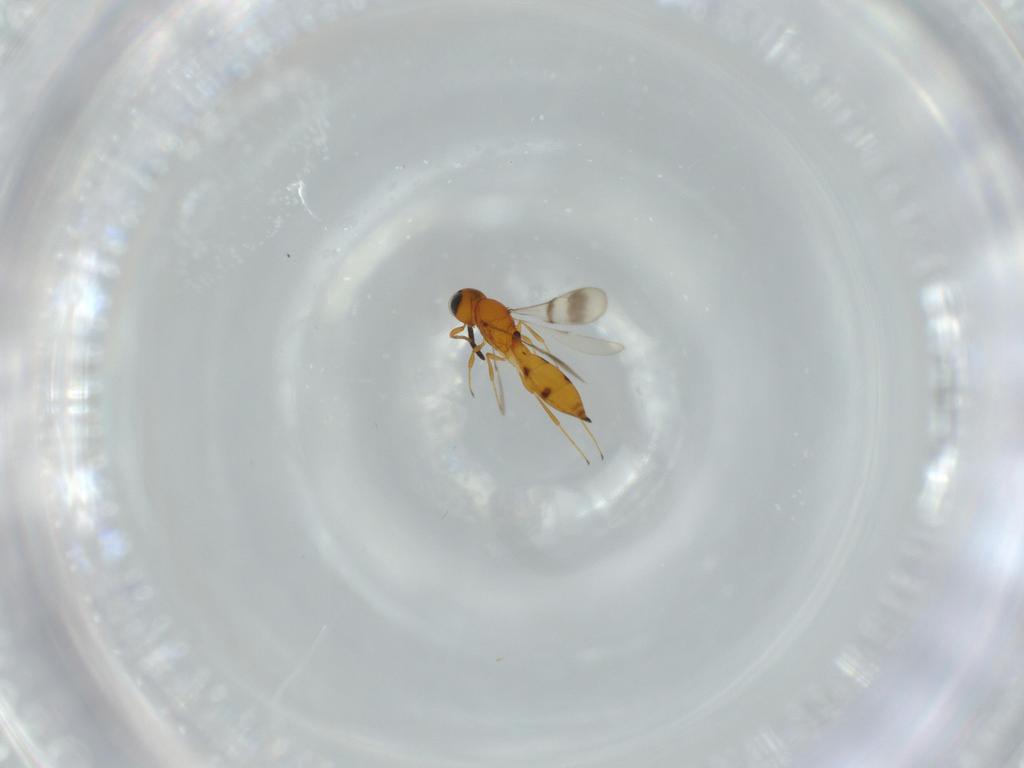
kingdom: Animalia
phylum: Arthropoda
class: Insecta
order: Hymenoptera
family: Scelionidae
